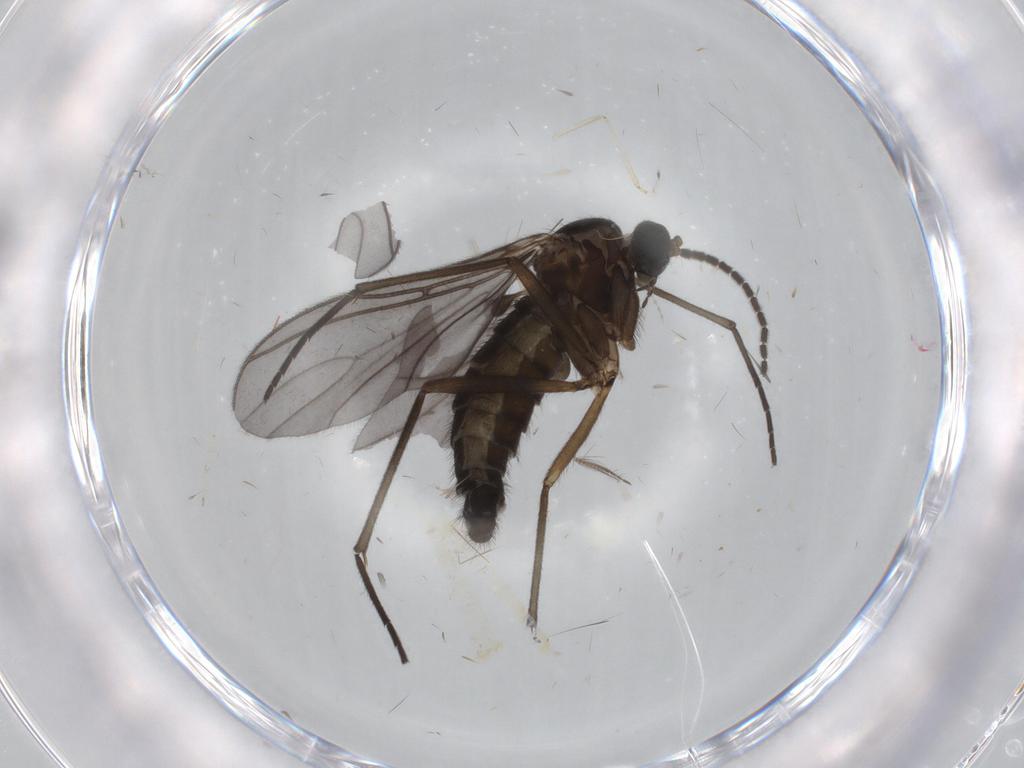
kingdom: Animalia
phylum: Arthropoda
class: Insecta
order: Diptera
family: Sciaridae
